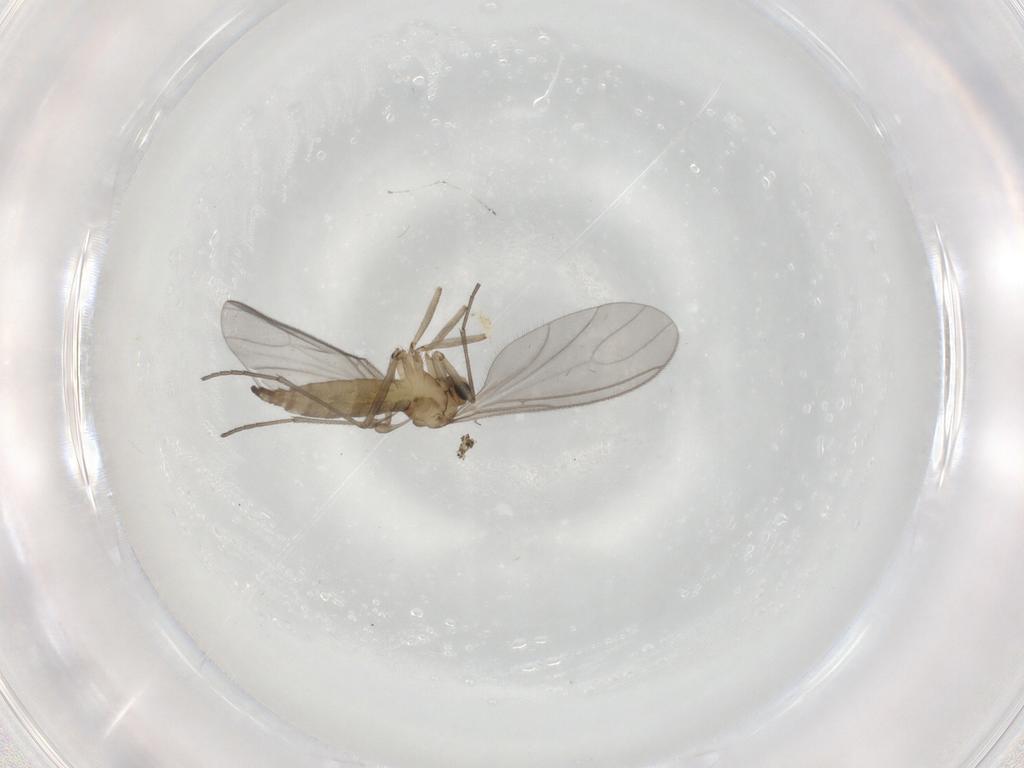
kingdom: Animalia
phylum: Arthropoda
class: Insecta
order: Diptera
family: Sciaridae
